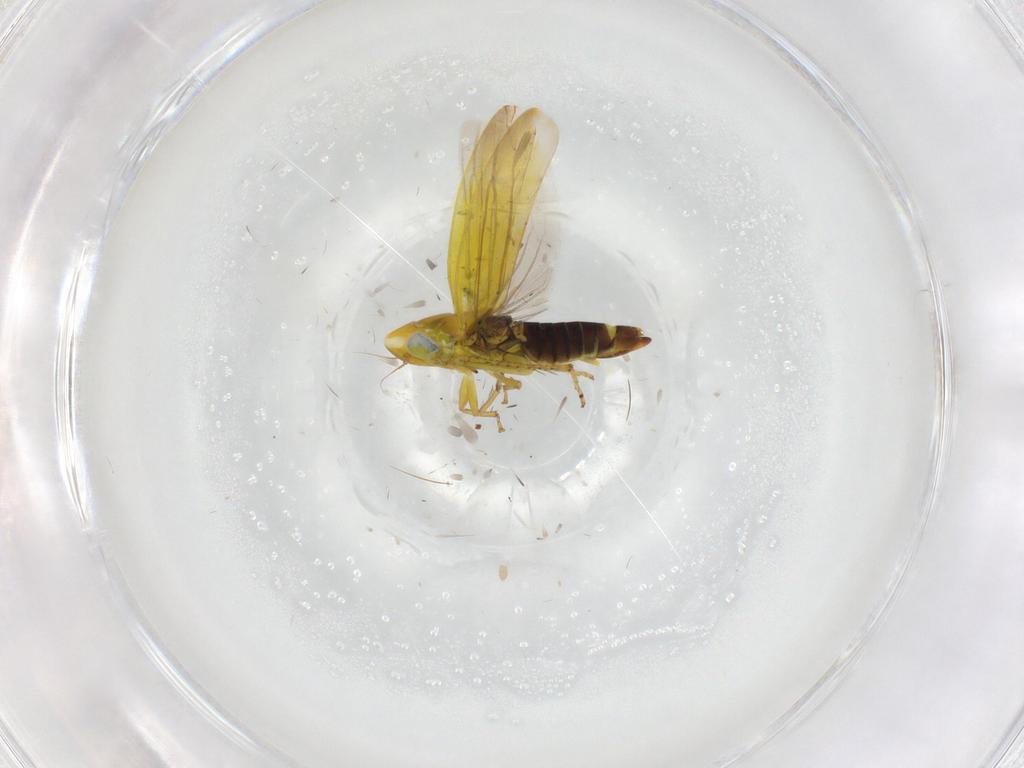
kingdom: Animalia
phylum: Arthropoda
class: Insecta
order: Hemiptera
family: Cicadellidae
